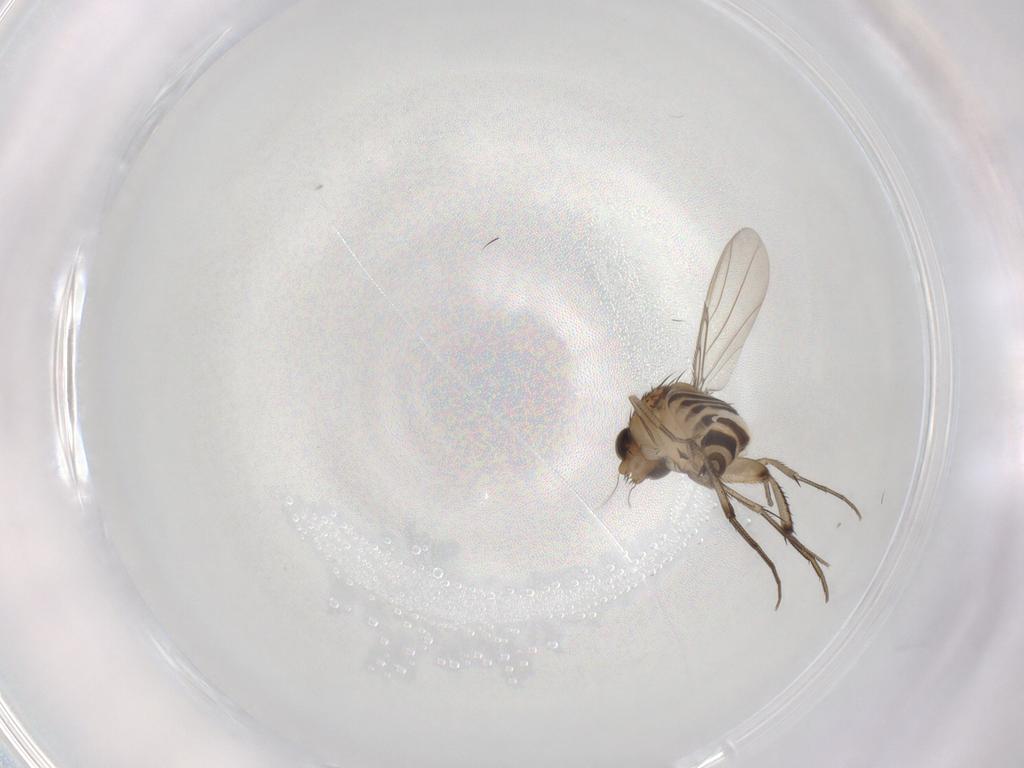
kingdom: Animalia
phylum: Arthropoda
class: Insecta
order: Diptera
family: Phoridae
